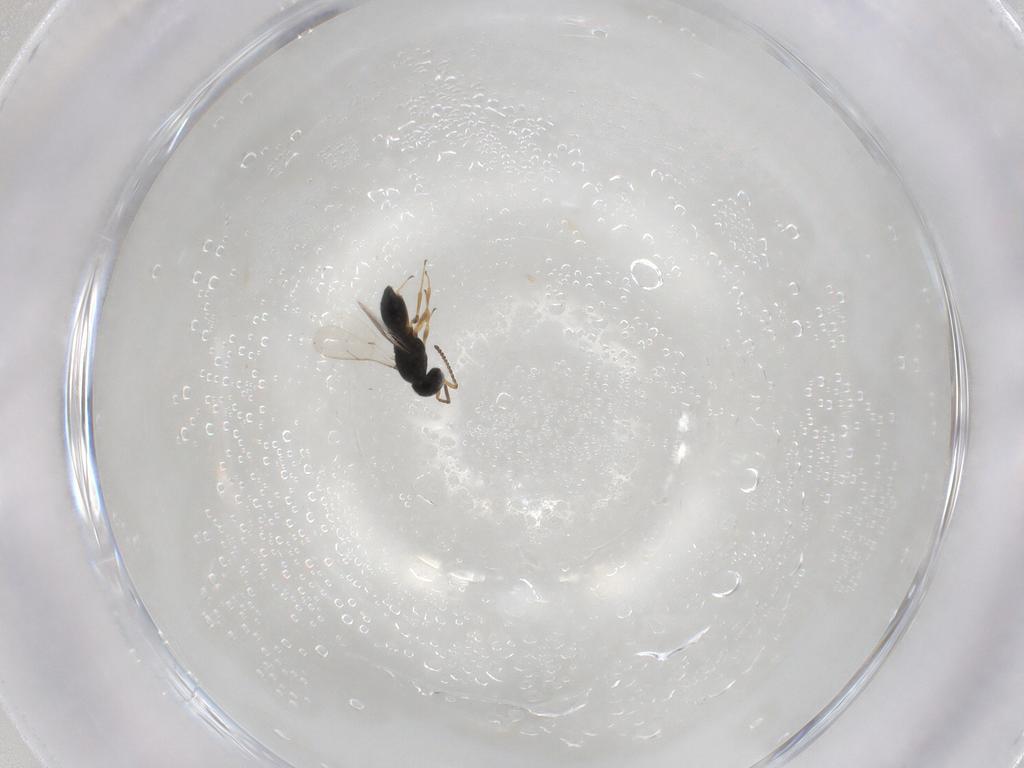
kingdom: Animalia
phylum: Arthropoda
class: Insecta
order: Hymenoptera
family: Scelionidae
